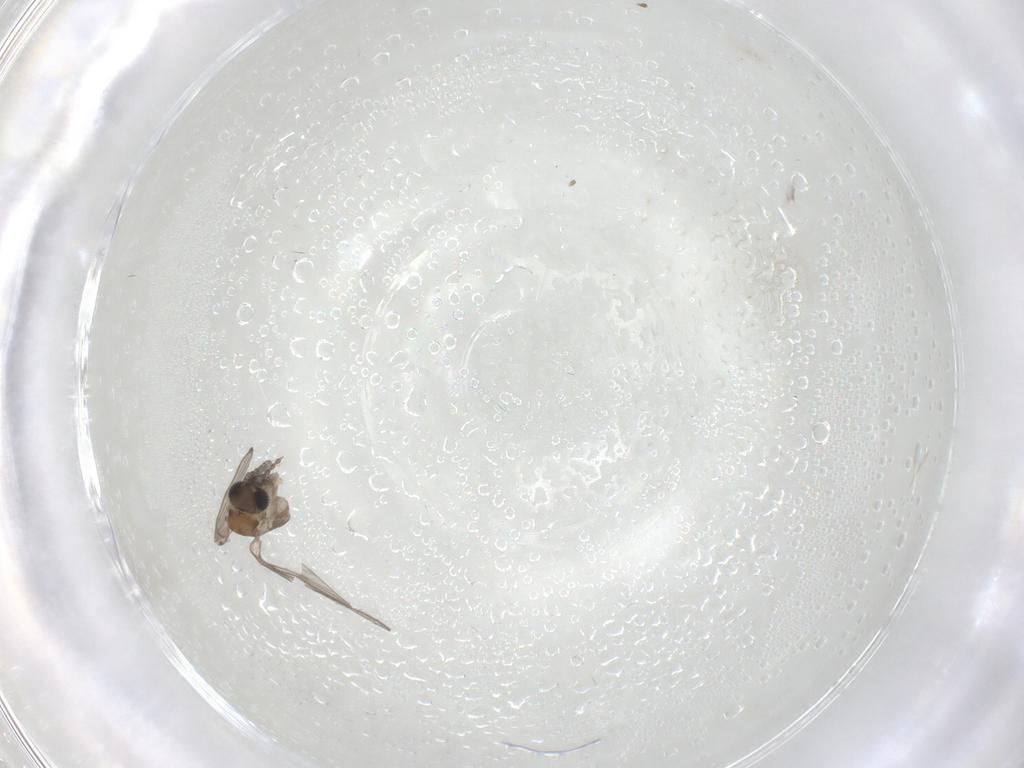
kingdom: Animalia
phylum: Arthropoda
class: Insecta
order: Diptera
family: Psychodidae
